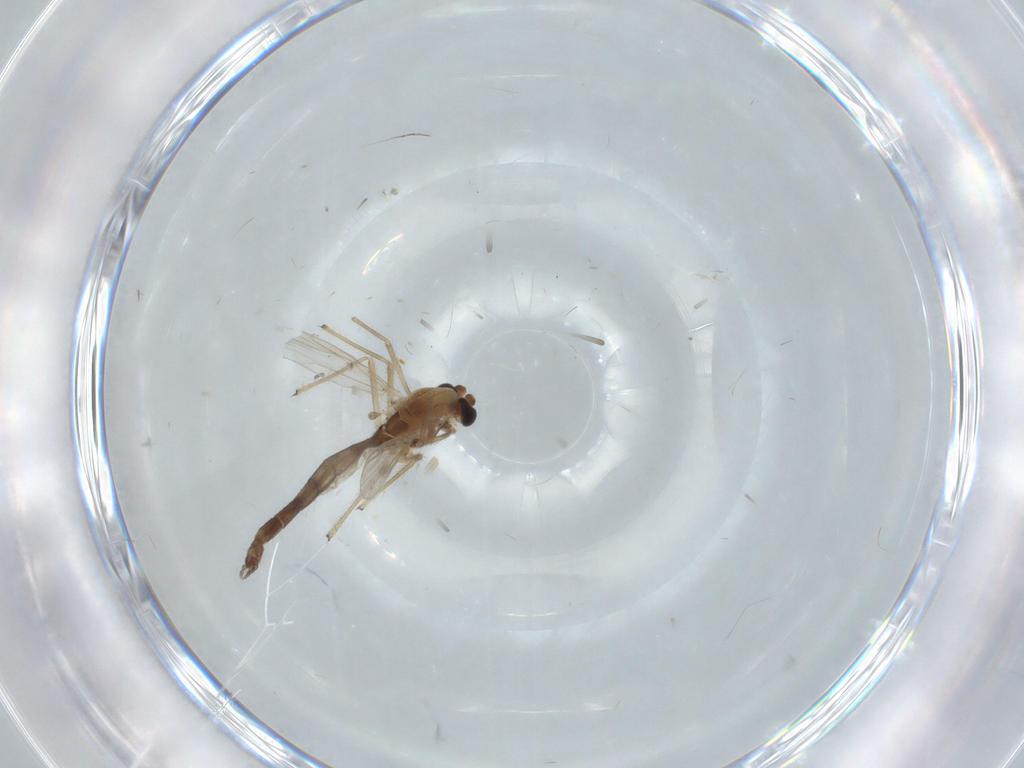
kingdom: Animalia
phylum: Arthropoda
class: Insecta
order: Diptera
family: Chironomidae
